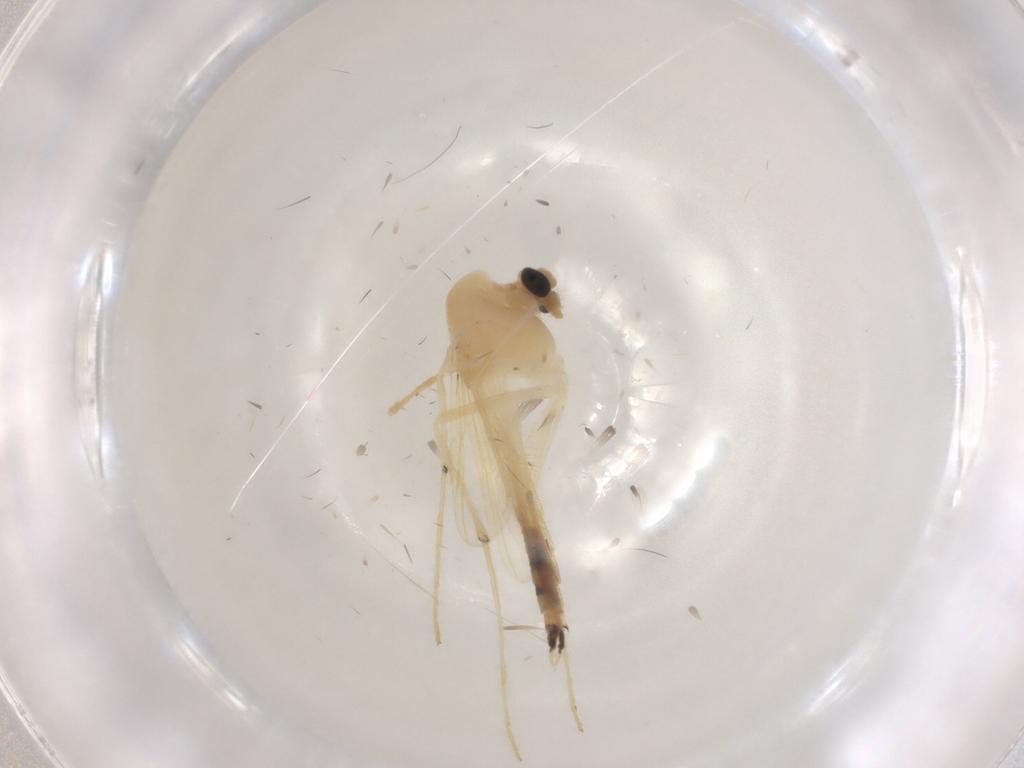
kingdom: Animalia
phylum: Arthropoda
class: Insecta
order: Diptera
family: Chironomidae
